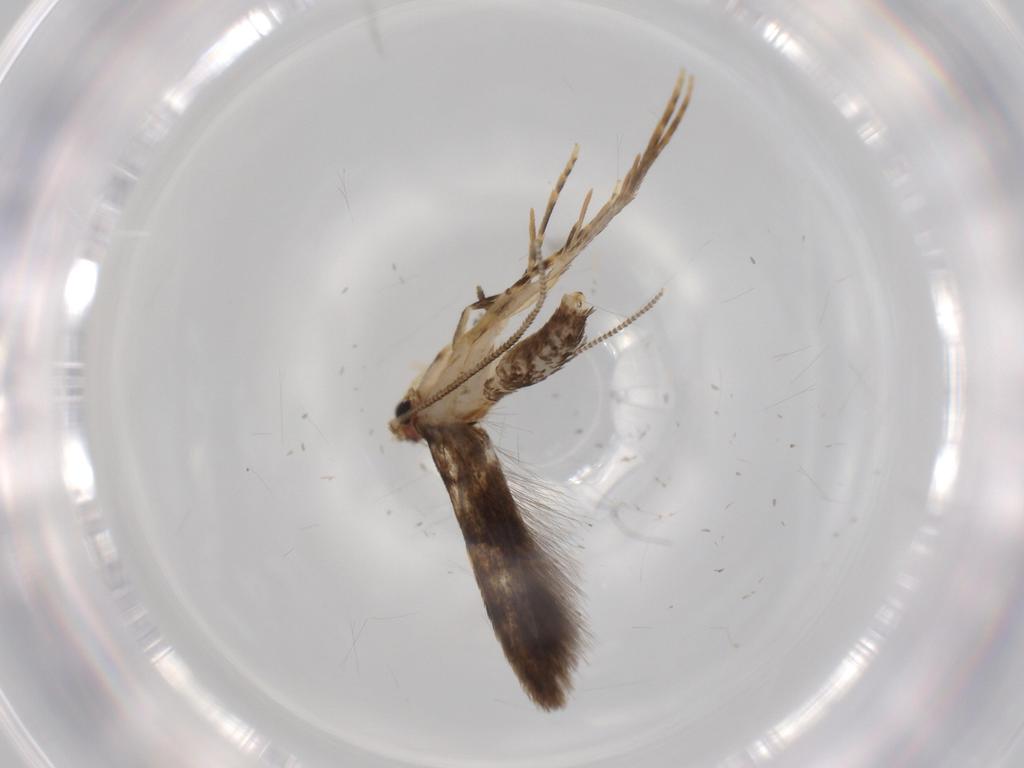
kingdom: Animalia
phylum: Arthropoda
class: Insecta
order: Lepidoptera
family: Tineidae
